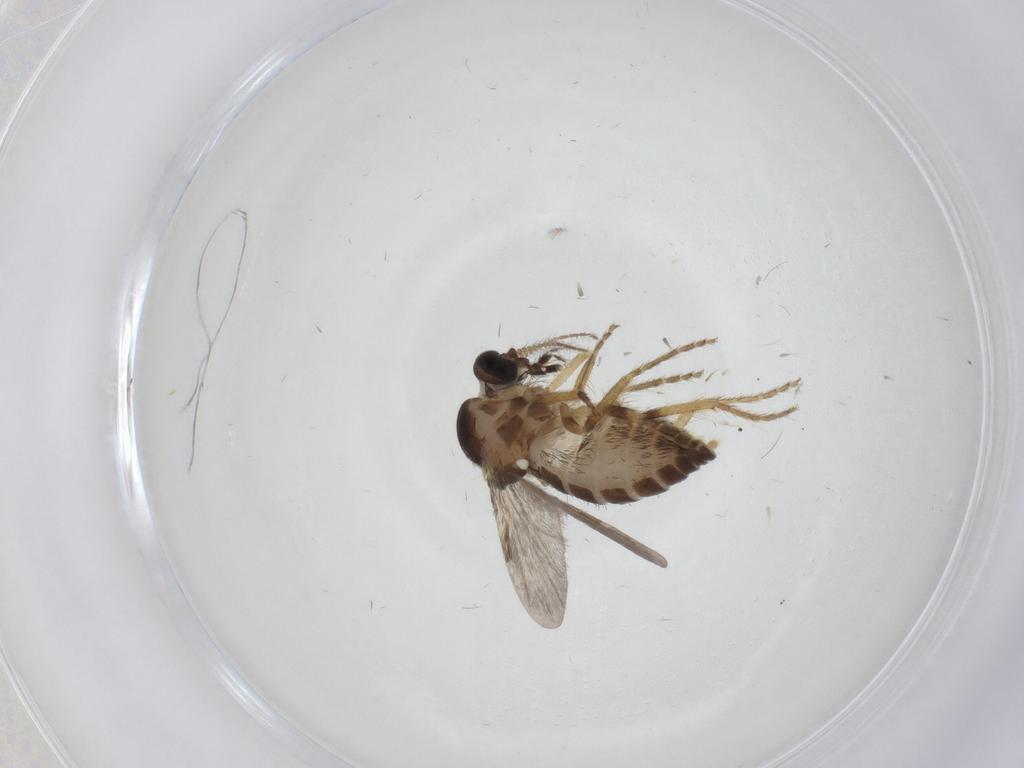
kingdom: Animalia
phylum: Arthropoda
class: Insecta
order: Diptera
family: Ceratopogonidae
